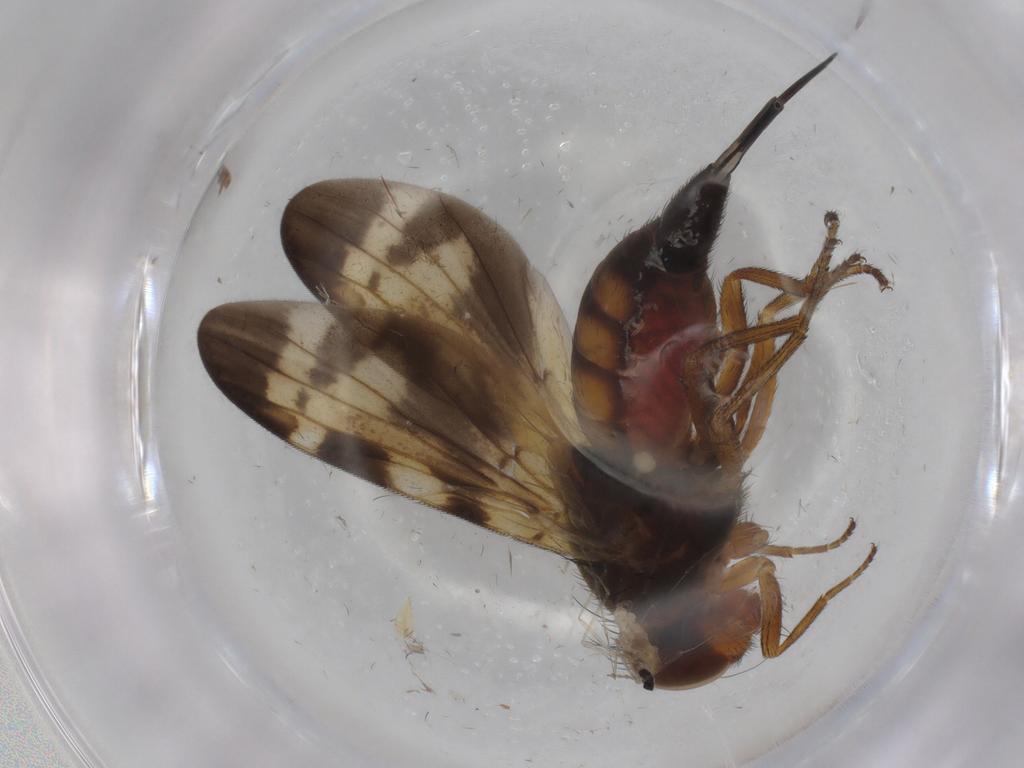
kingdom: Animalia
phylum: Arthropoda
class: Insecta
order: Diptera
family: Ulidiidae
